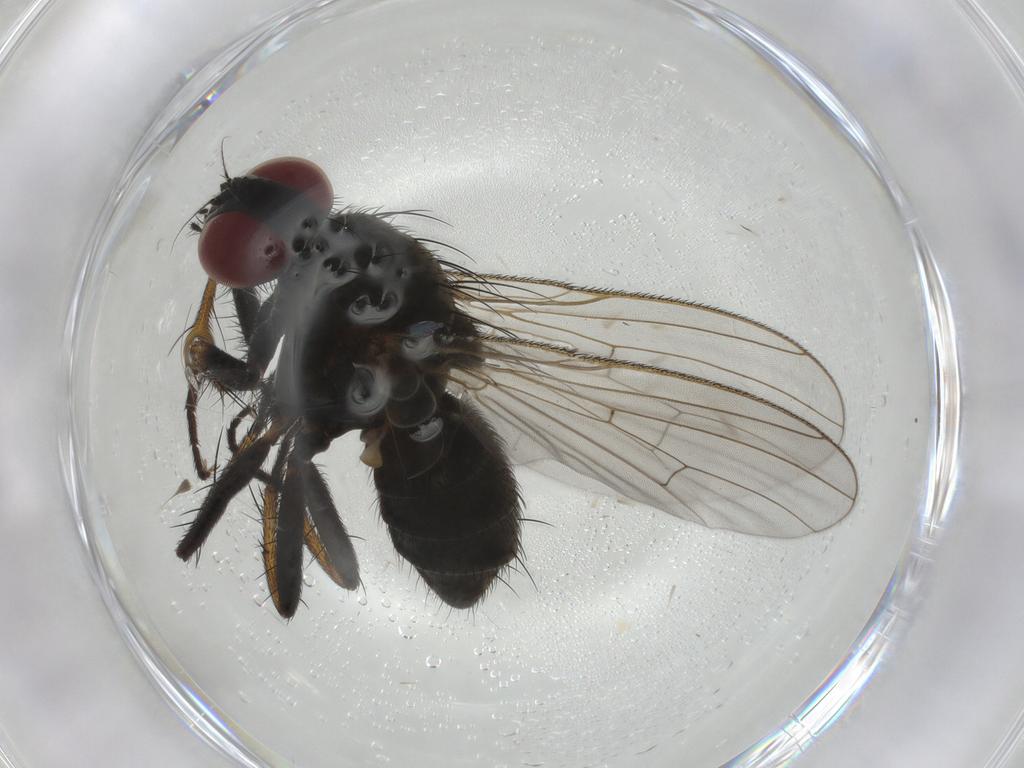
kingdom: Animalia
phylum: Arthropoda
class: Insecta
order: Diptera
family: Muscidae
